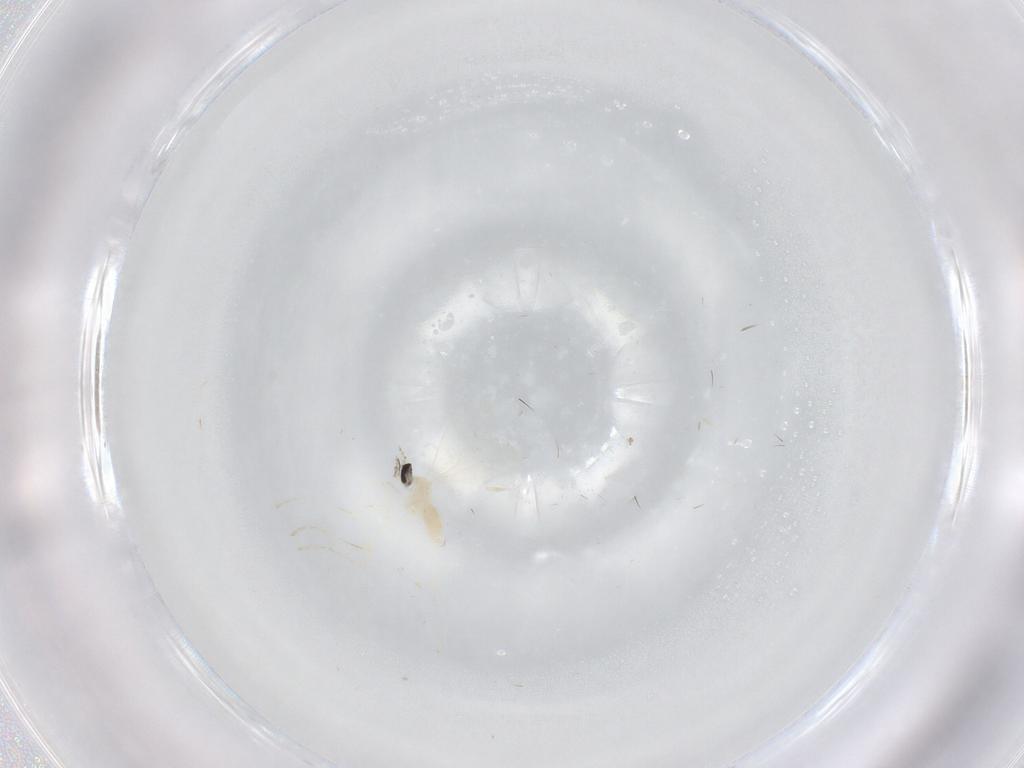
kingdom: Animalia
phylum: Arthropoda
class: Insecta
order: Diptera
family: Cecidomyiidae
